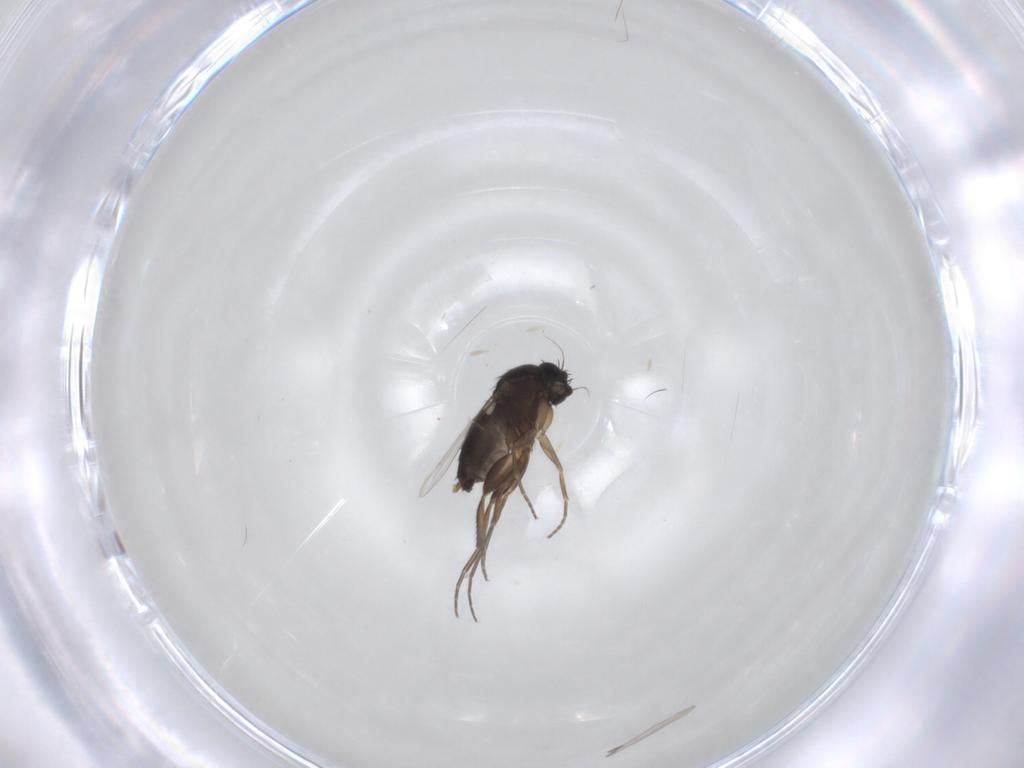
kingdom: Animalia
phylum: Arthropoda
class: Insecta
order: Diptera
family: Phoridae
